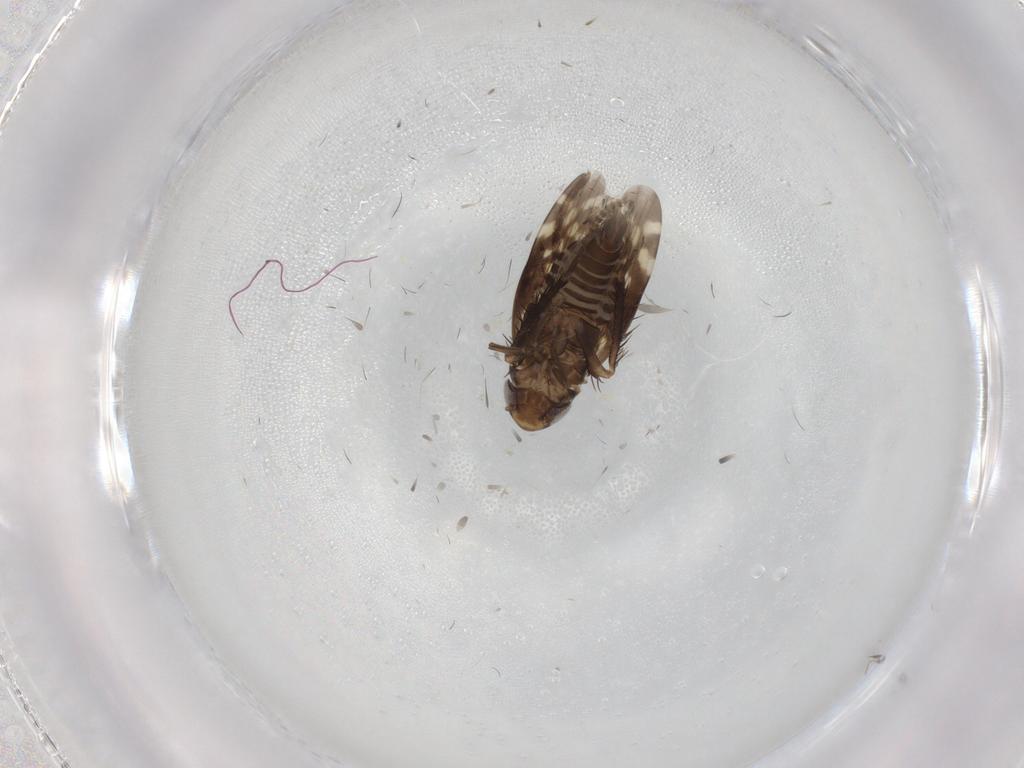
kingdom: Animalia
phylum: Arthropoda
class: Insecta
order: Hemiptera
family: Cicadellidae
